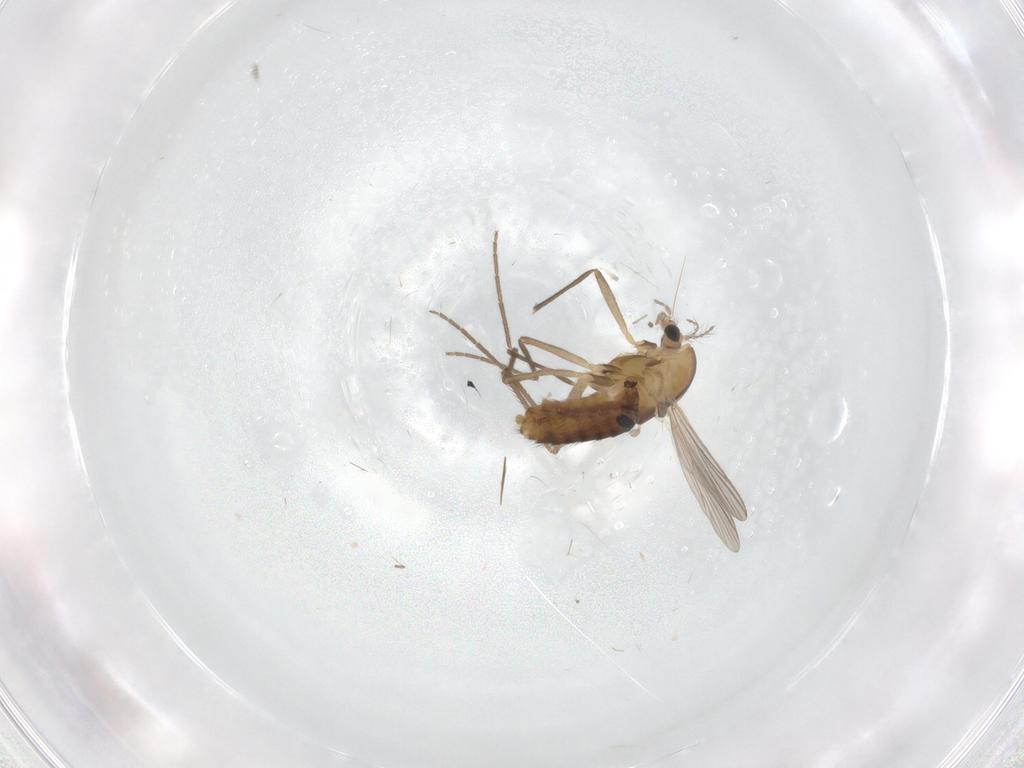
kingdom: Animalia
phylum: Arthropoda
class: Insecta
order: Diptera
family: Chironomidae
